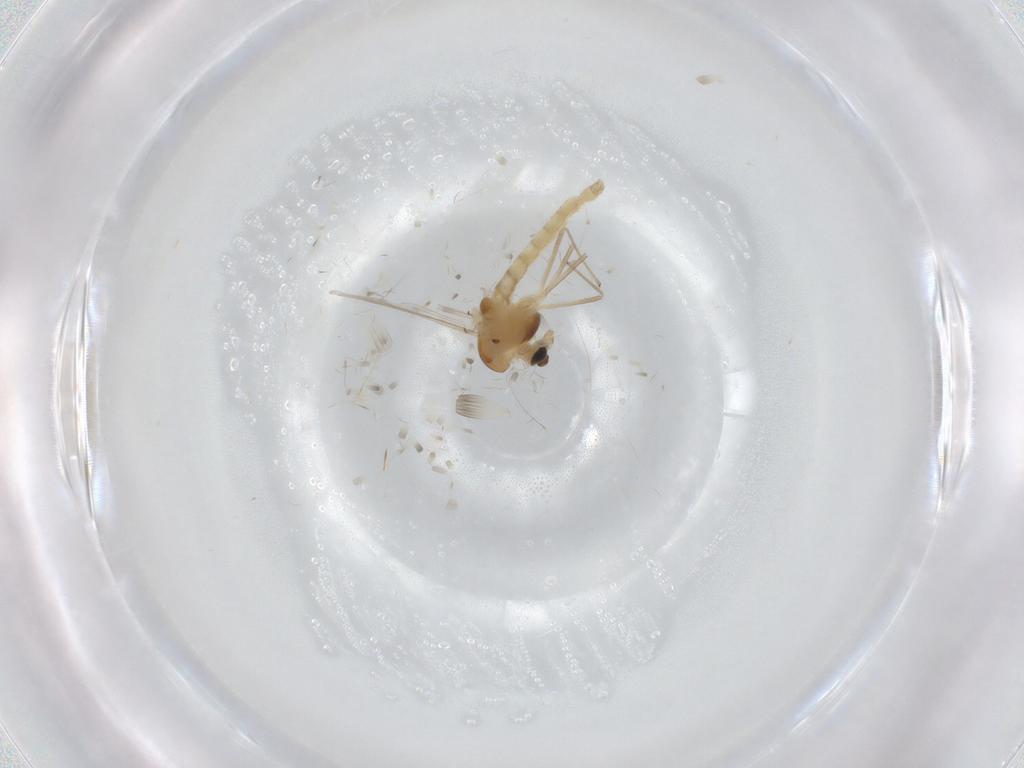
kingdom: Animalia
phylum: Arthropoda
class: Insecta
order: Diptera
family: Chironomidae
